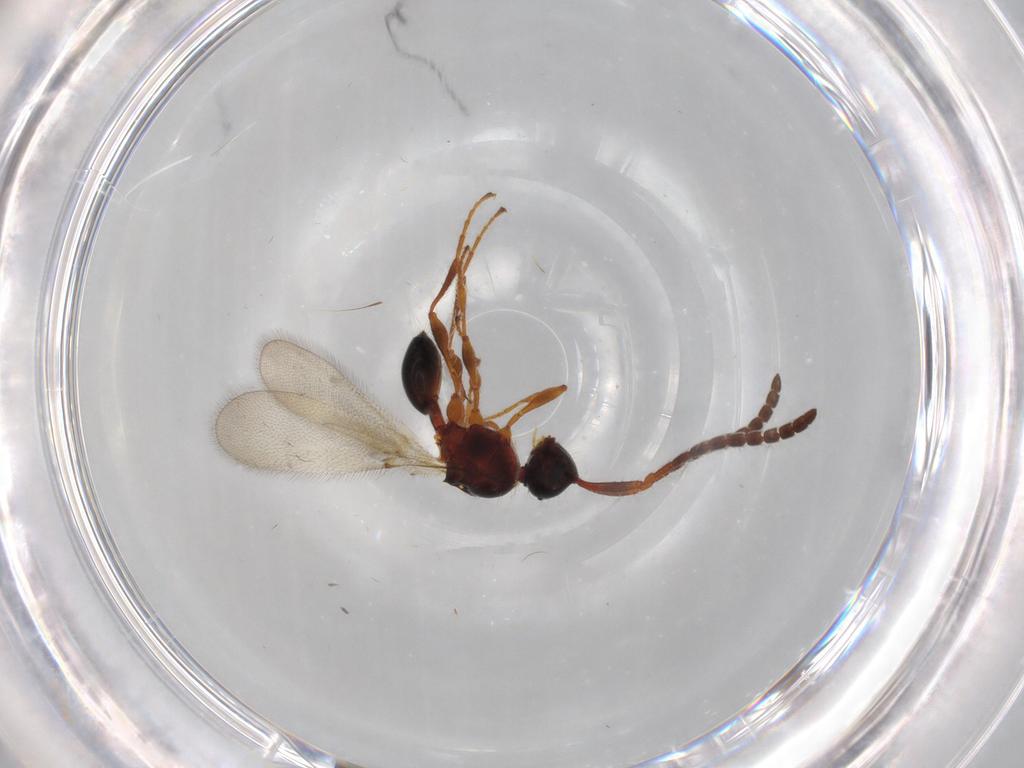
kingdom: Animalia
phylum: Arthropoda
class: Insecta
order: Hymenoptera
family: Diapriidae
